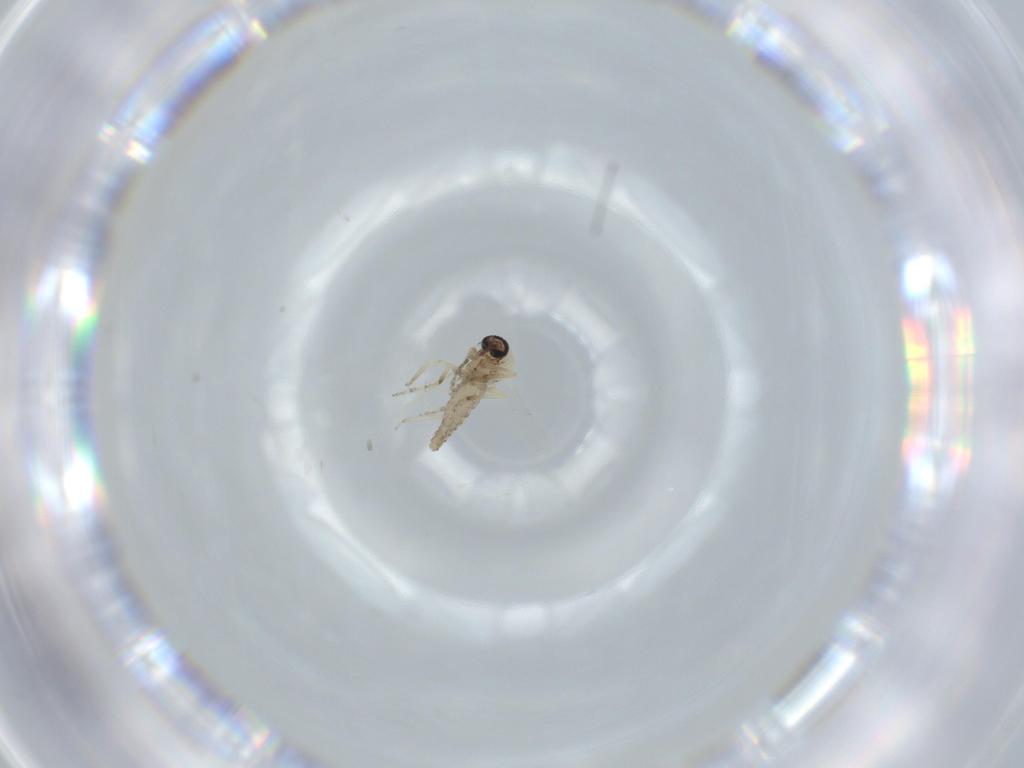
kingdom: Animalia
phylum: Arthropoda
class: Insecta
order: Diptera
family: Ceratopogonidae
